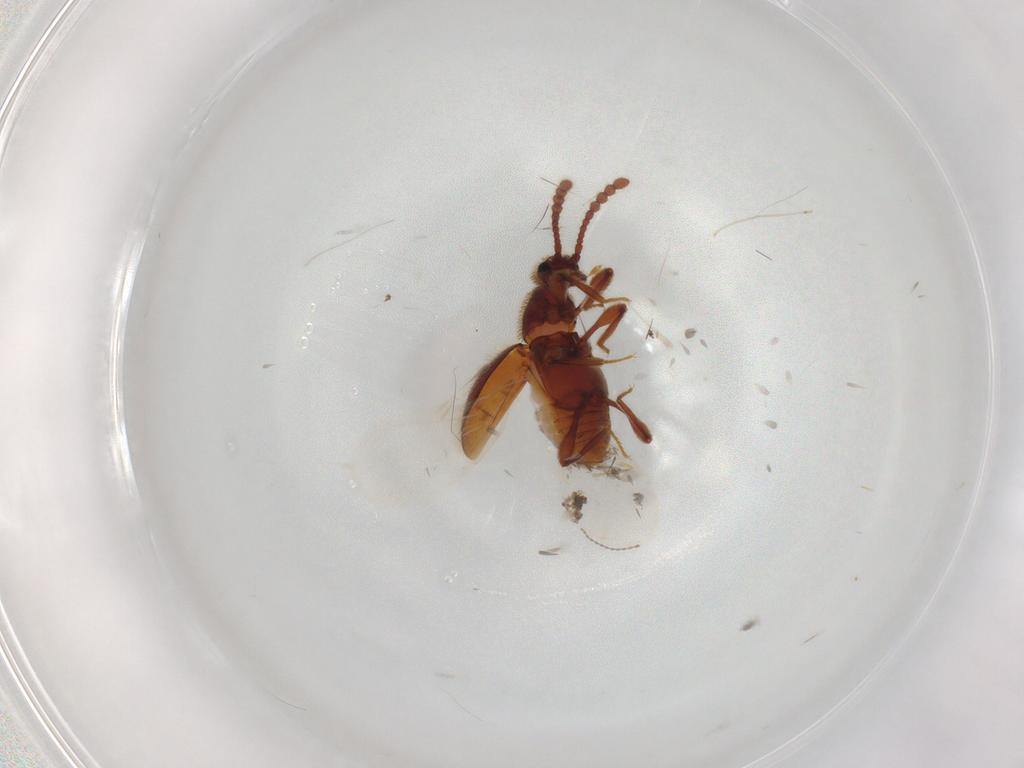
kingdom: Animalia
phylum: Arthropoda
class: Insecta
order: Coleoptera
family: Staphylinidae
